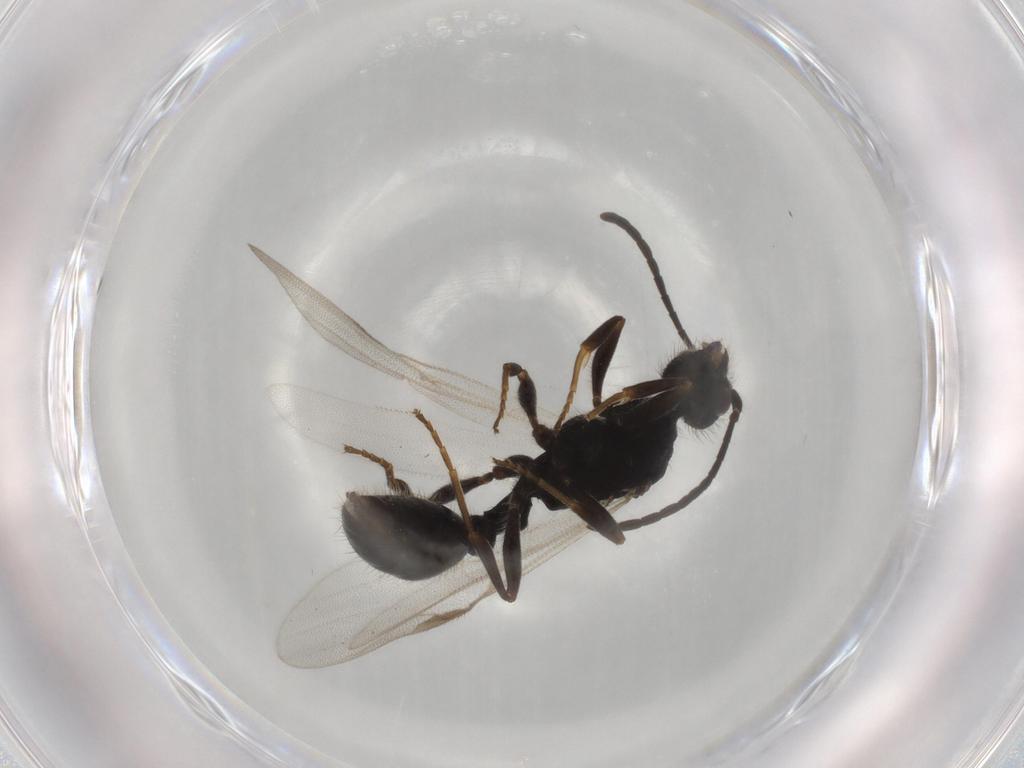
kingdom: Animalia
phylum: Arthropoda
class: Insecta
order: Hymenoptera
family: Formicidae
